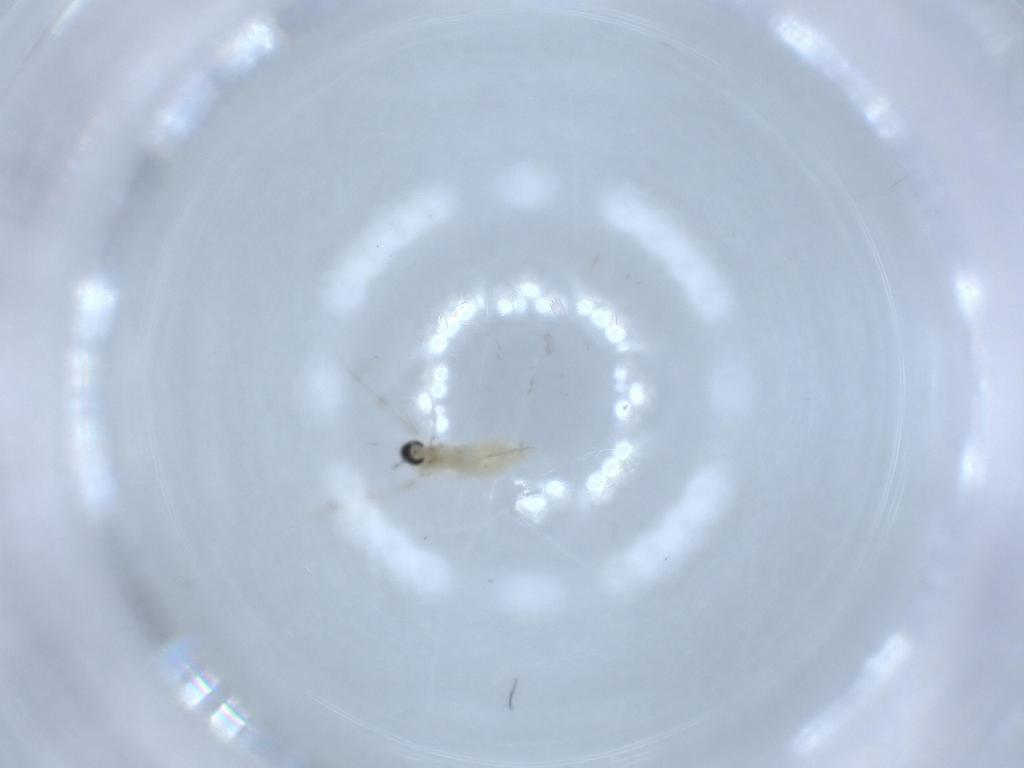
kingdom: Animalia
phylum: Arthropoda
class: Insecta
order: Diptera
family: Cecidomyiidae
